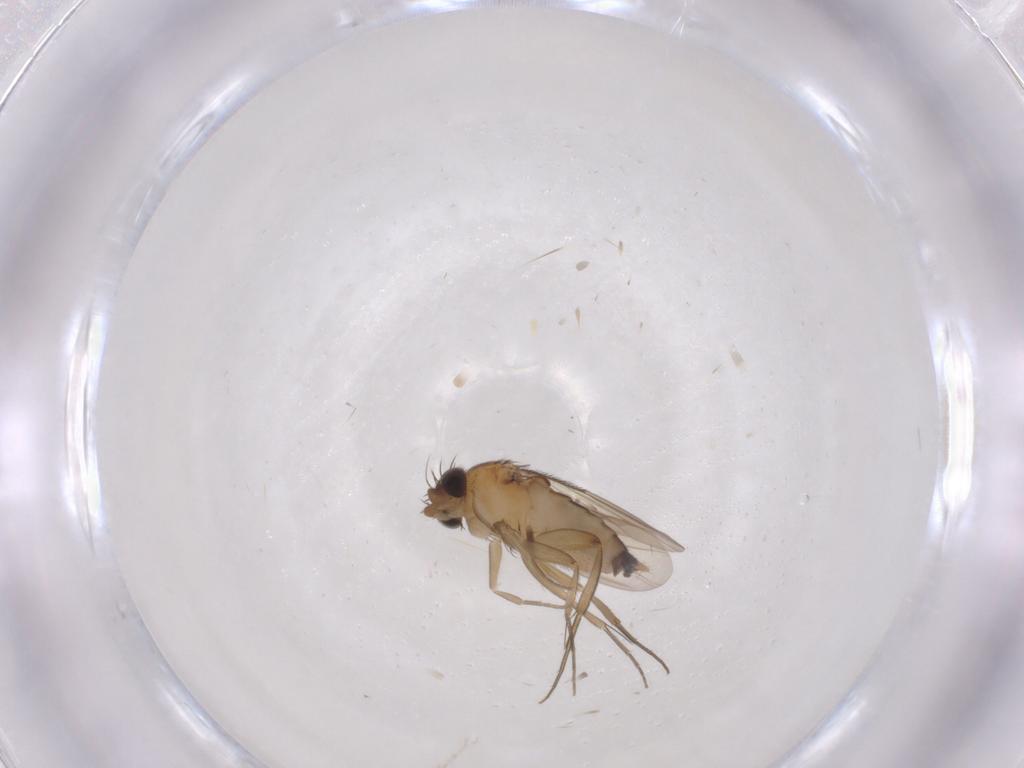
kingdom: Animalia
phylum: Arthropoda
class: Insecta
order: Diptera
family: Phoridae
